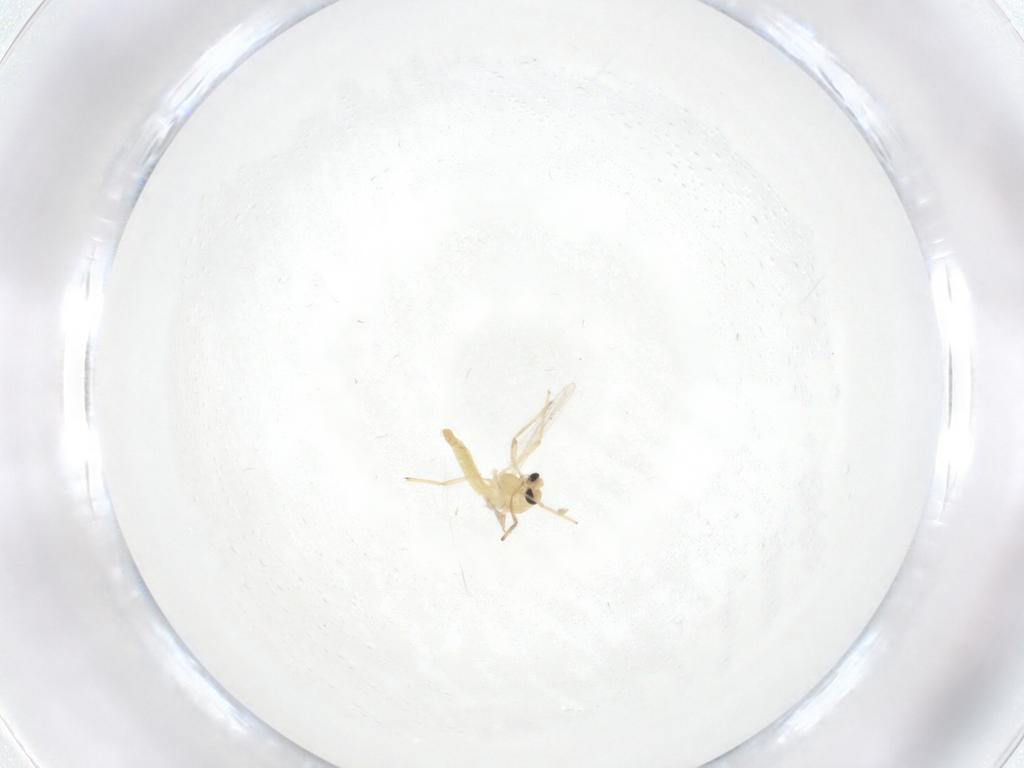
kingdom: Animalia
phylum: Arthropoda
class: Insecta
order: Diptera
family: Chironomidae
